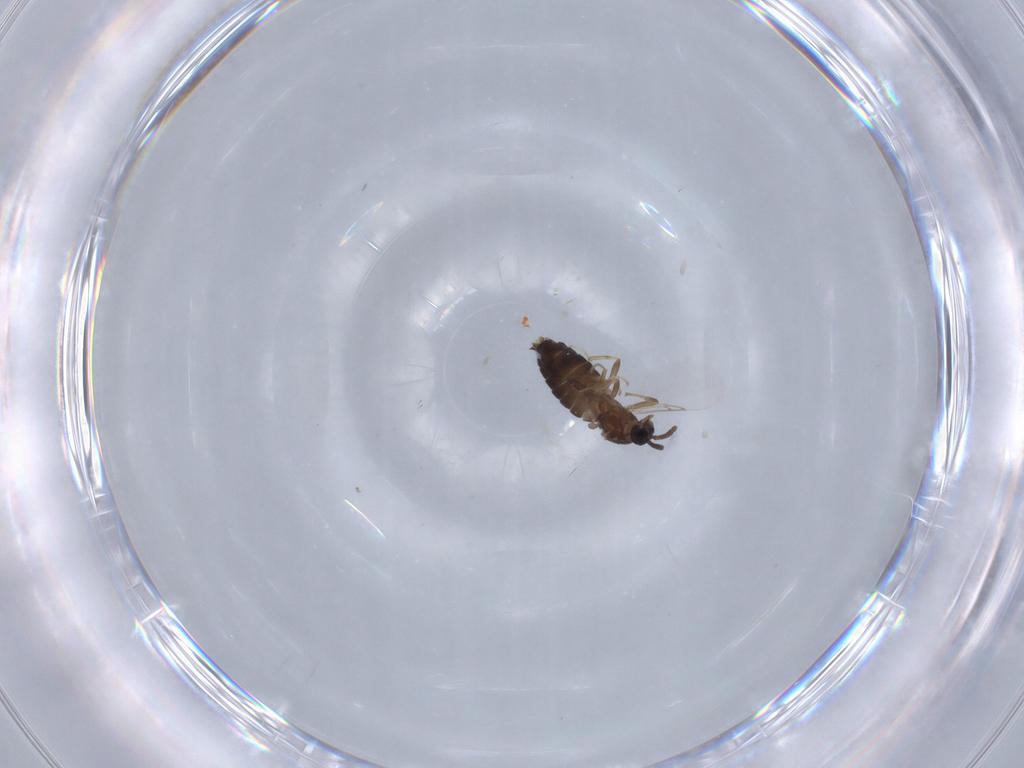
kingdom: Animalia
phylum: Arthropoda
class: Insecta
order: Diptera
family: Scatopsidae
